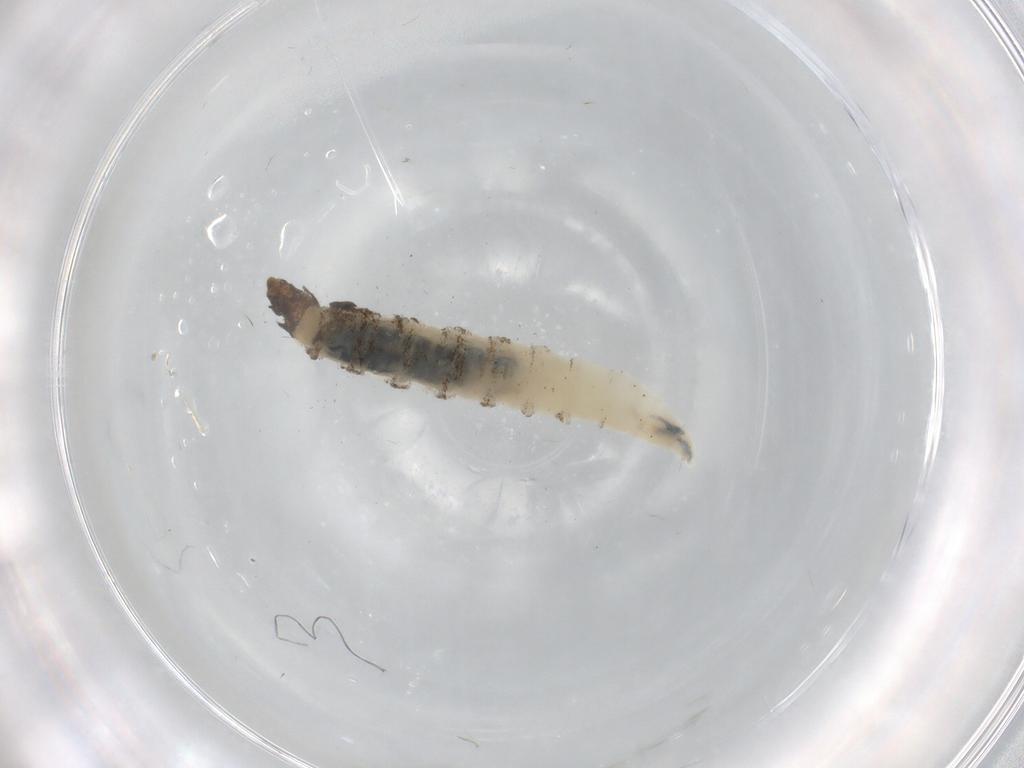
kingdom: Animalia
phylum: Arthropoda
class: Insecta
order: Diptera
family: Chironomidae
